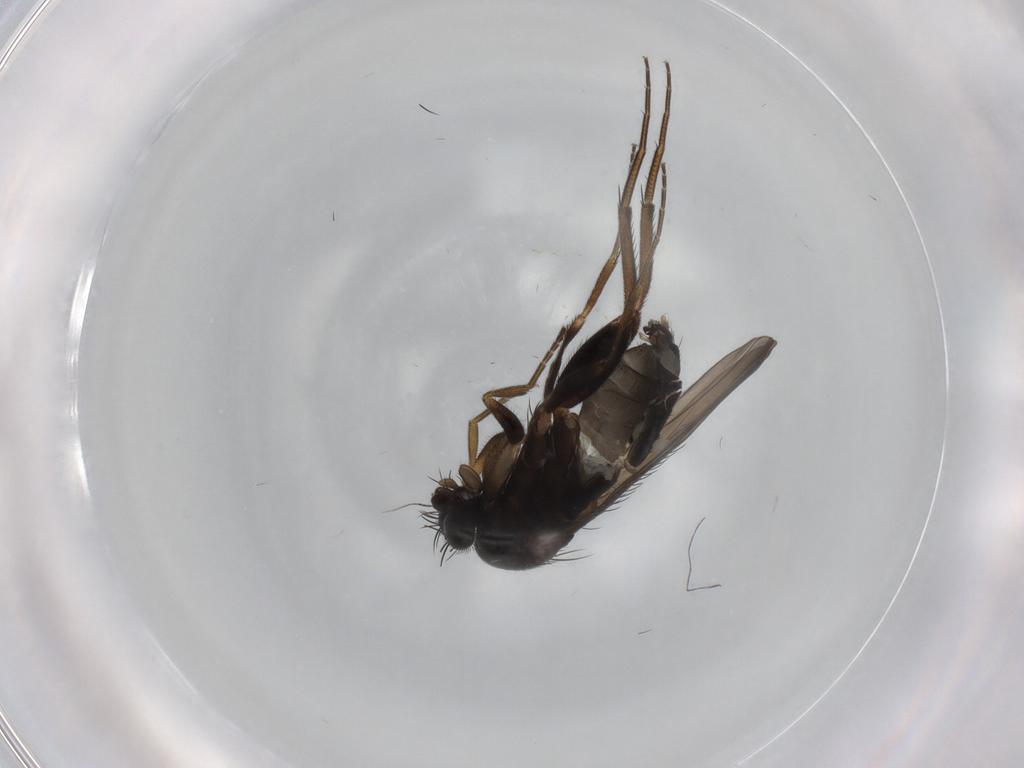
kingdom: Animalia
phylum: Arthropoda
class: Insecta
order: Diptera
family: Phoridae
